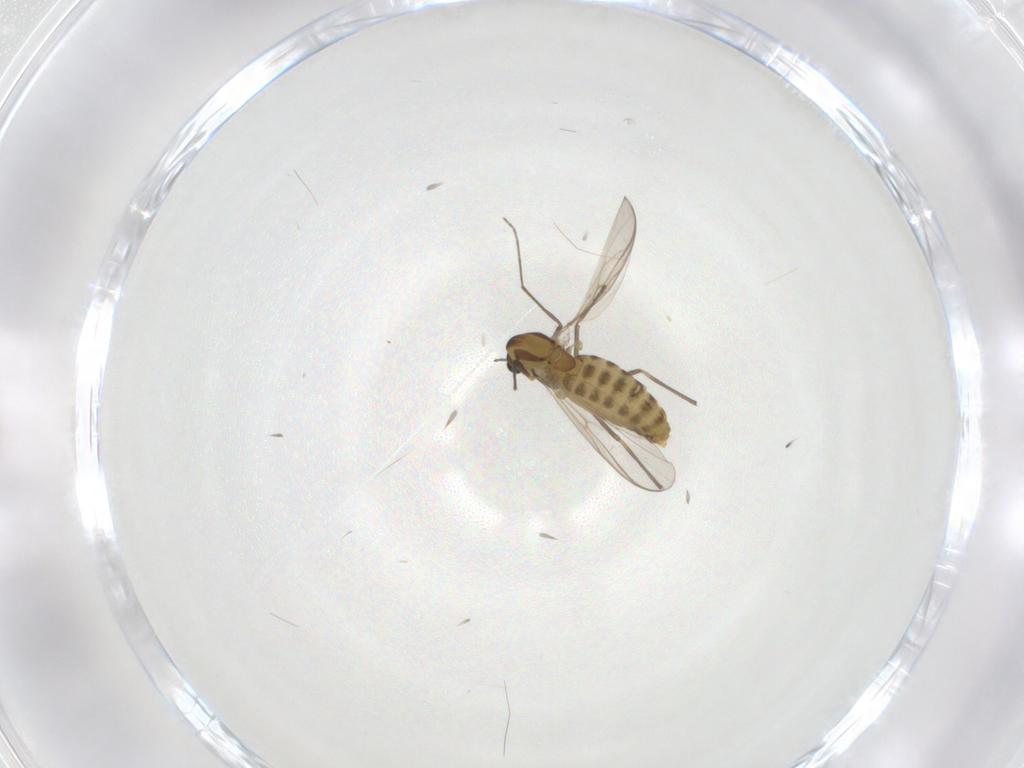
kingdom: Animalia
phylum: Arthropoda
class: Insecta
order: Diptera
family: Chironomidae
